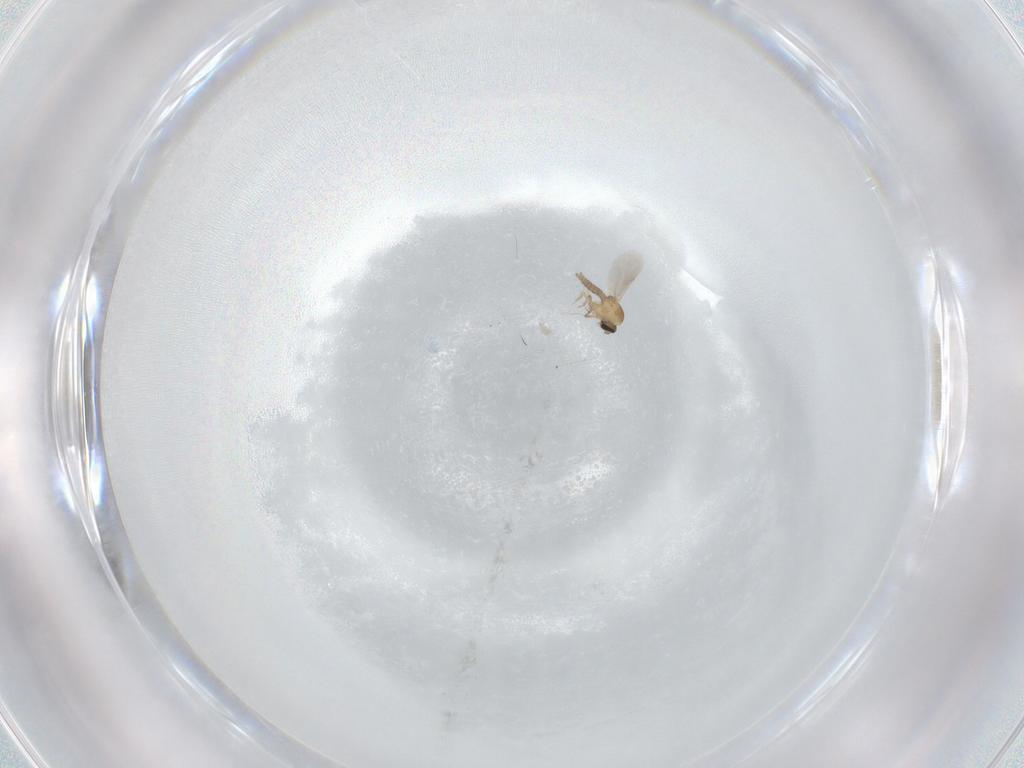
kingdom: Animalia
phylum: Arthropoda
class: Insecta
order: Diptera
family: Ceratopogonidae
